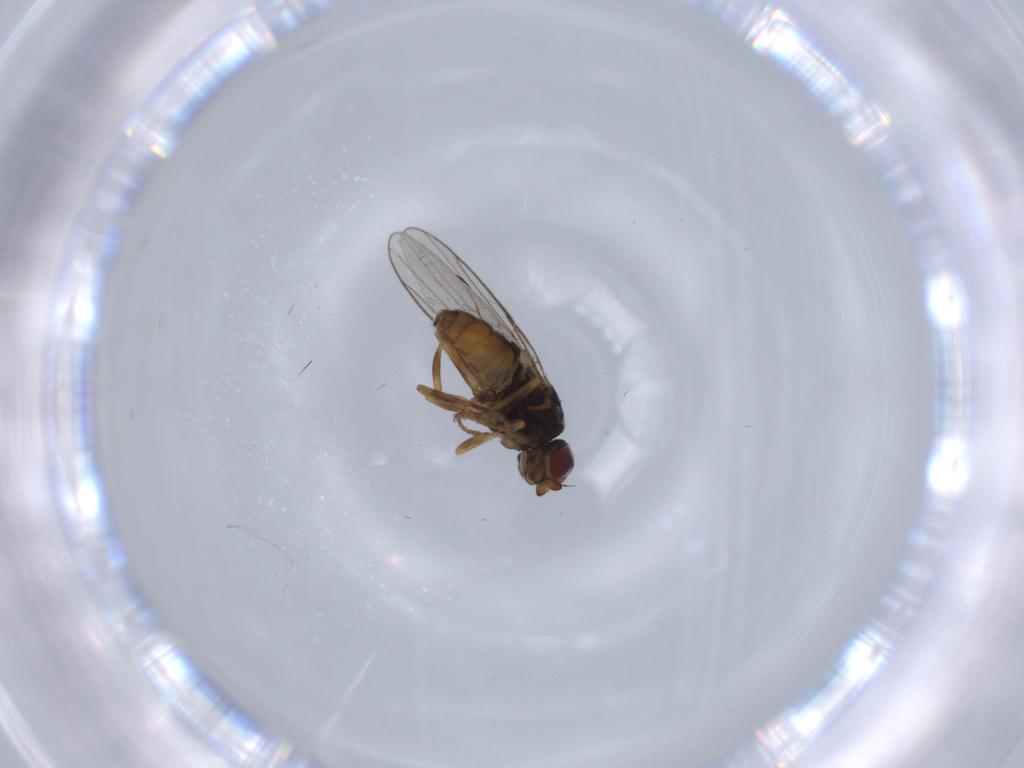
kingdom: Animalia
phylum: Arthropoda
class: Insecta
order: Diptera
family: Chloropidae
